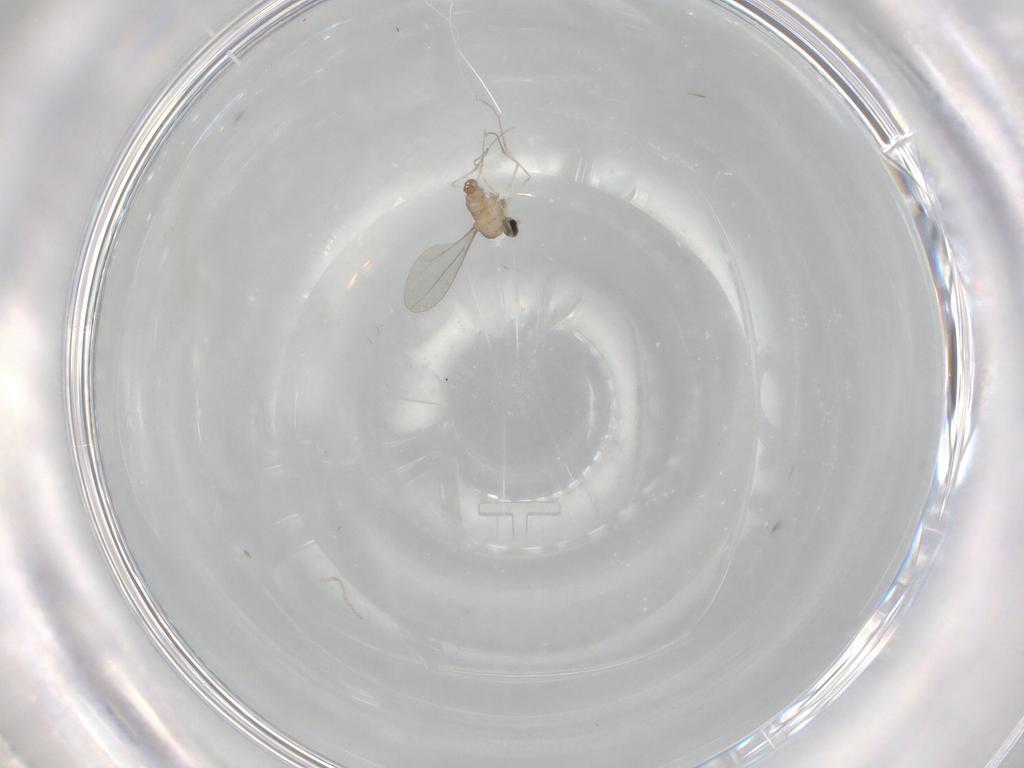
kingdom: Animalia
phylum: Arthropoda
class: Insecta
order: Diptera
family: Cecidomyiidae
